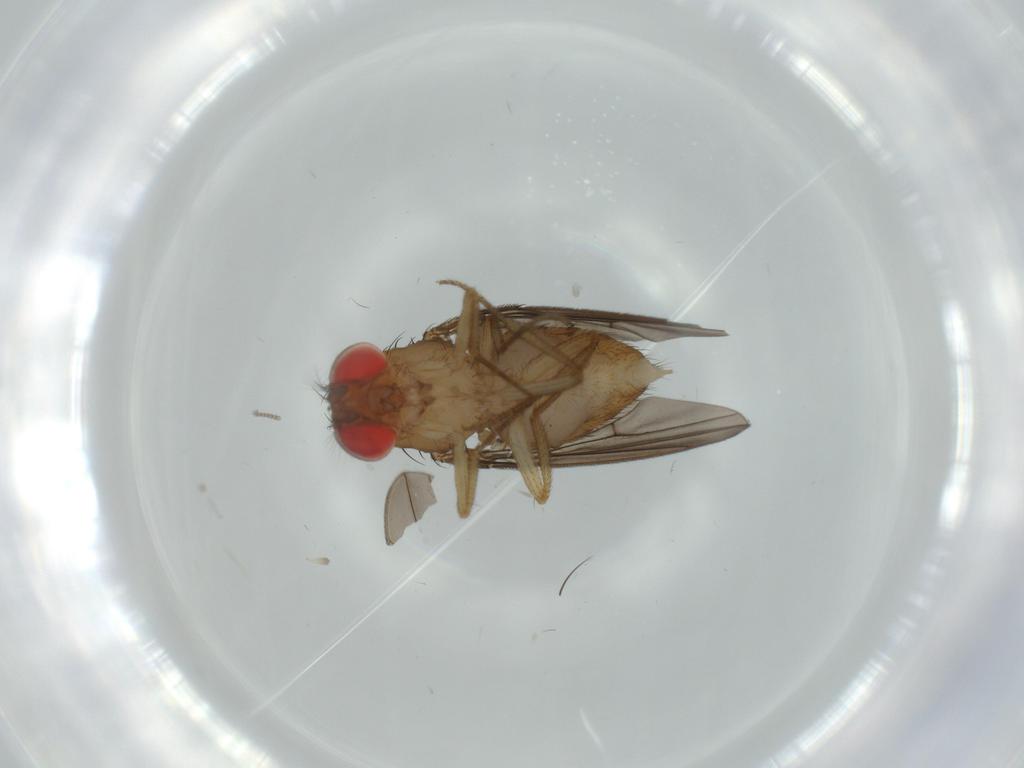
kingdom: Animalia
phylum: Arthropoda
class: Insecta
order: Diptera
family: Drosophilidae
